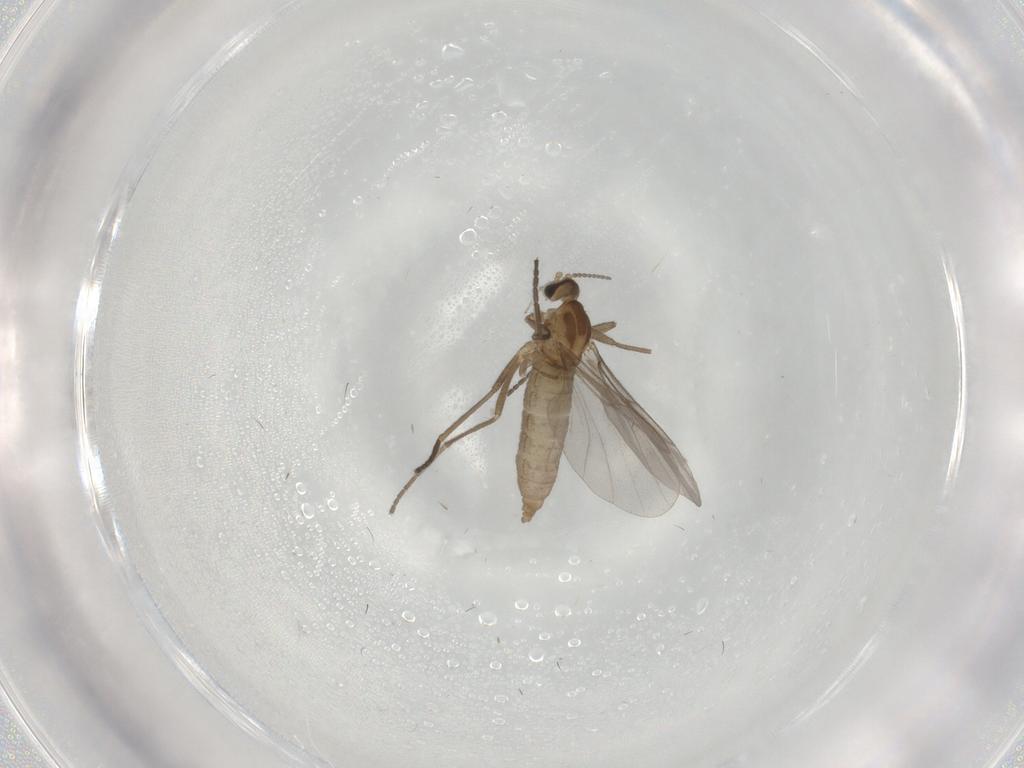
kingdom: Animalia
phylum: Arthropoda
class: Insecta
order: Diptera
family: Cecidomyiidae
